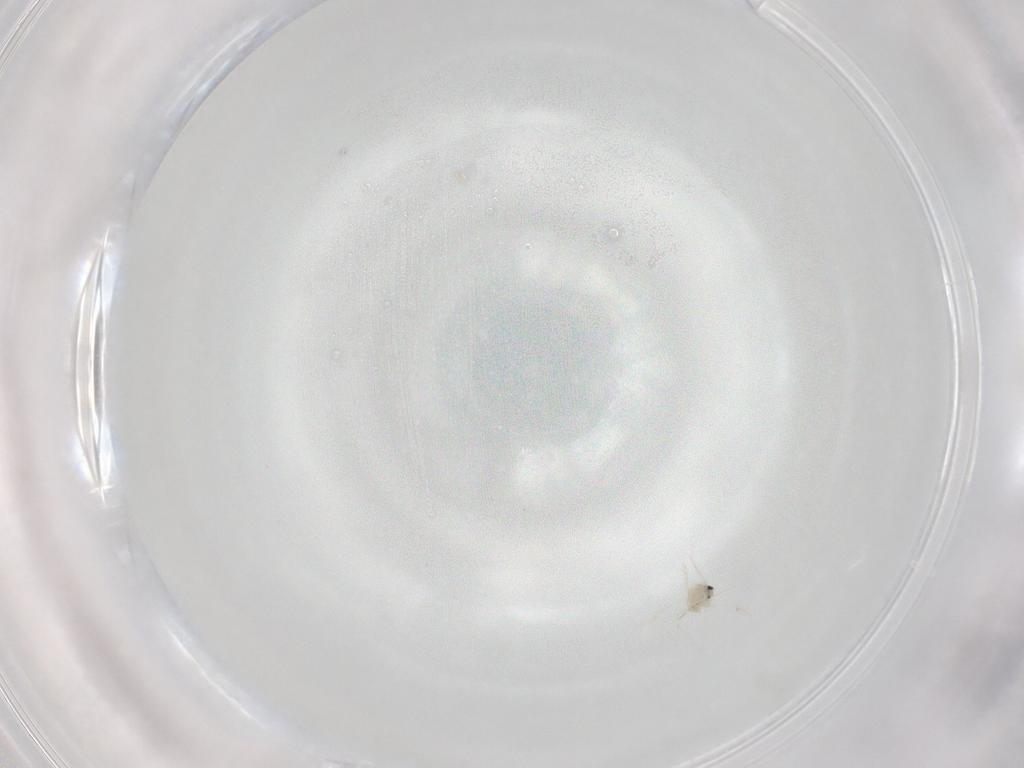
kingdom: Animalia
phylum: Arthropoda
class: Insecta
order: Diptera
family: Cecidomyiidae
